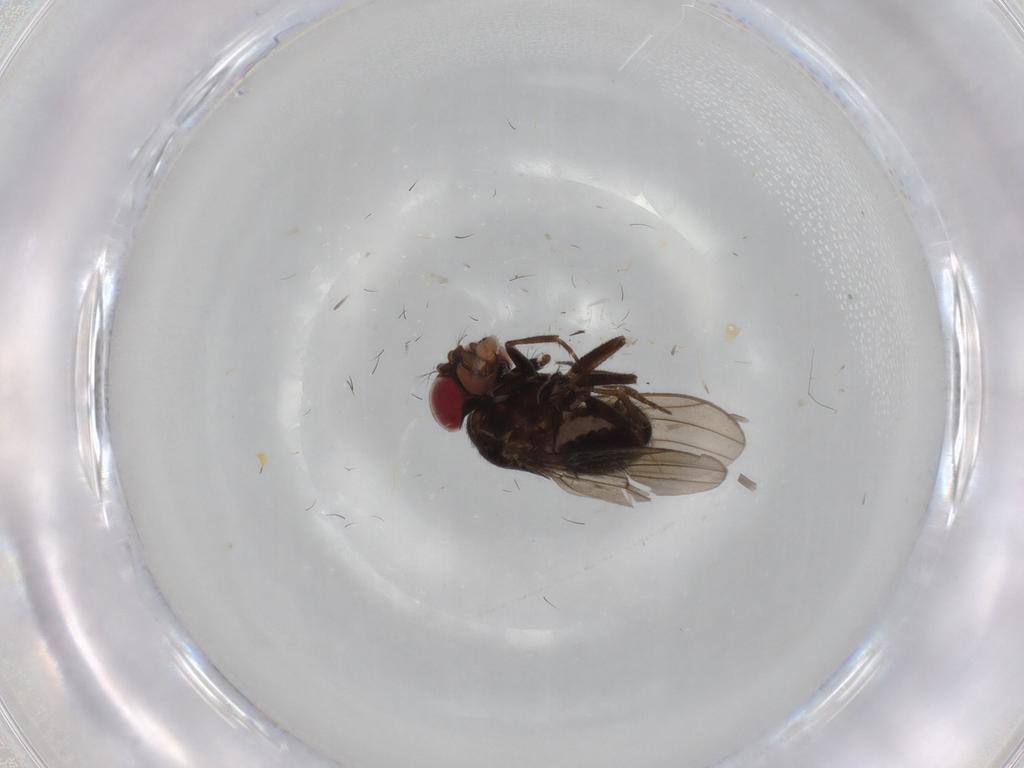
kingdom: Animalia
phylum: Arthropoda
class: Insecta
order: Diptera
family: Drosophilidae
